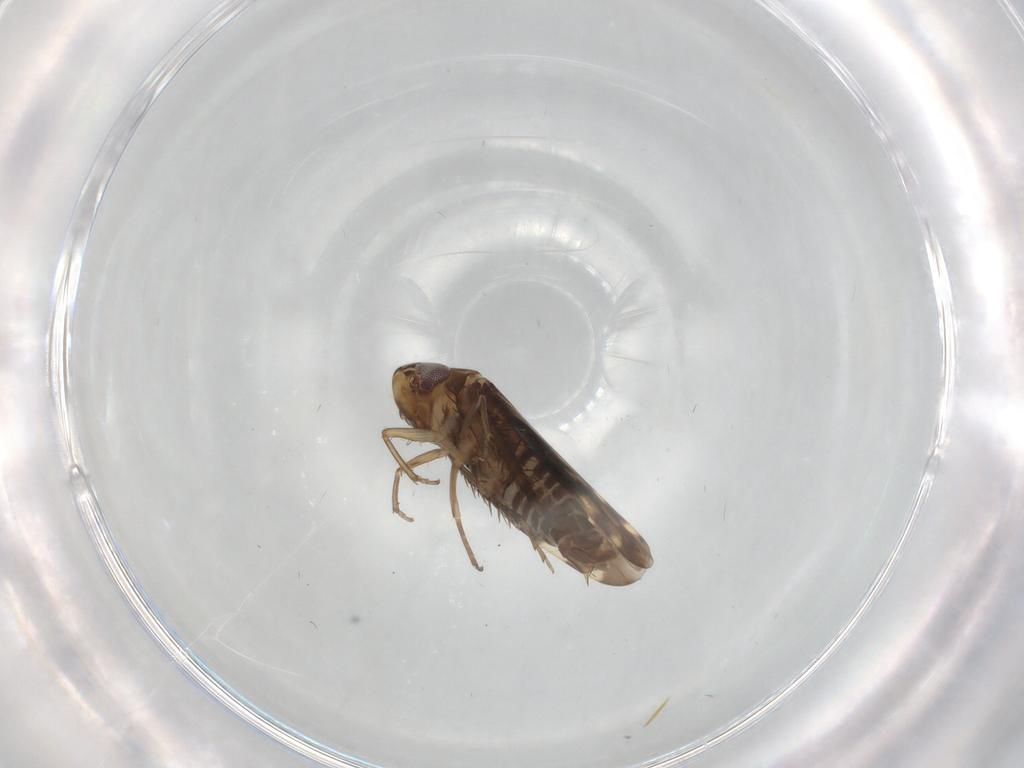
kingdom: Animalia
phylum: Arthropoda
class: Insecta
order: Hemiptera
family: Cicadellidae
